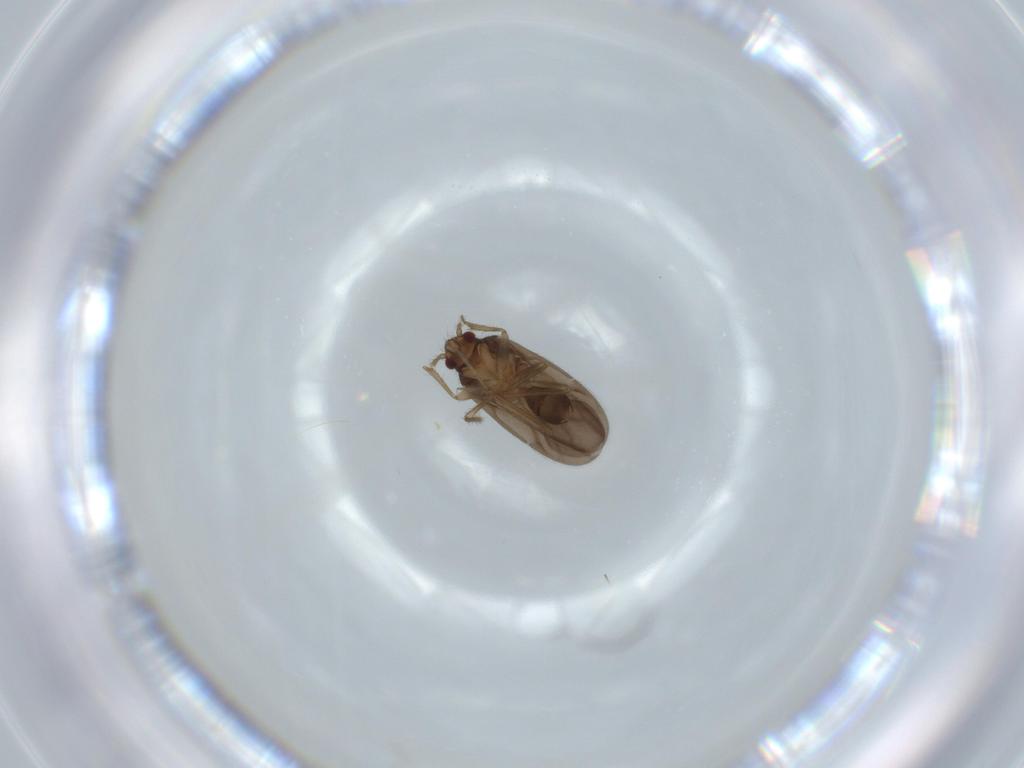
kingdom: Animalia
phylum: Arthropoda
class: Insecta
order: Hemiptera
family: Ceratocombidae
